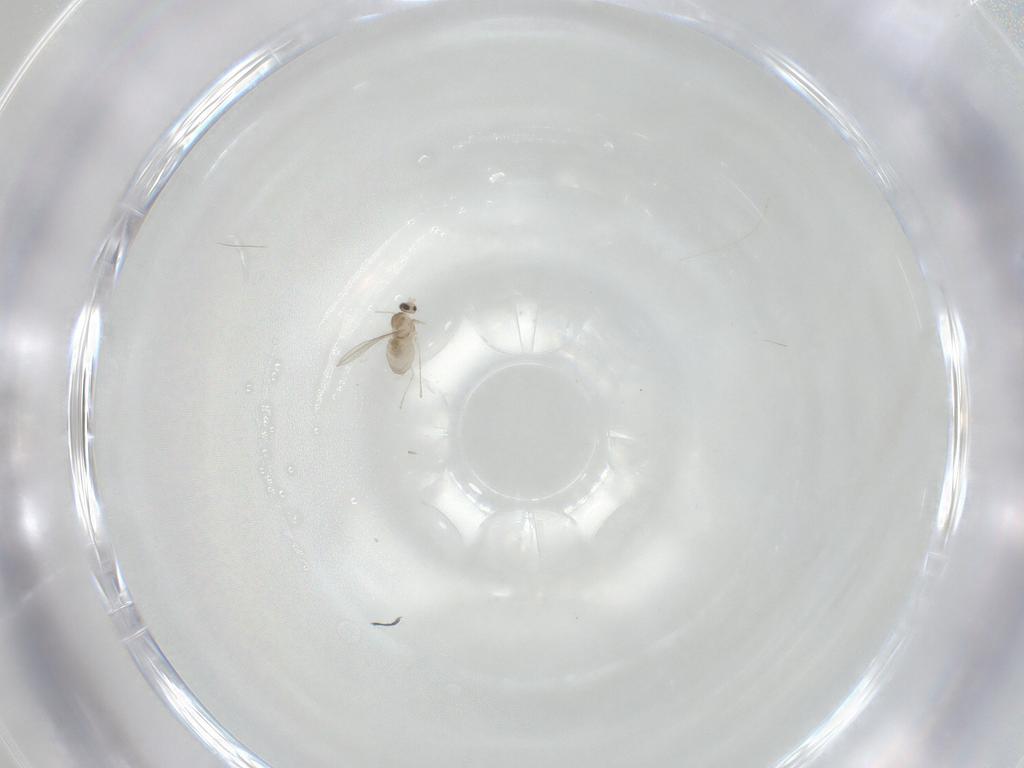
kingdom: Animalia
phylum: Arthropoda
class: Insecta
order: Diptera
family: Cecidomyiidae
